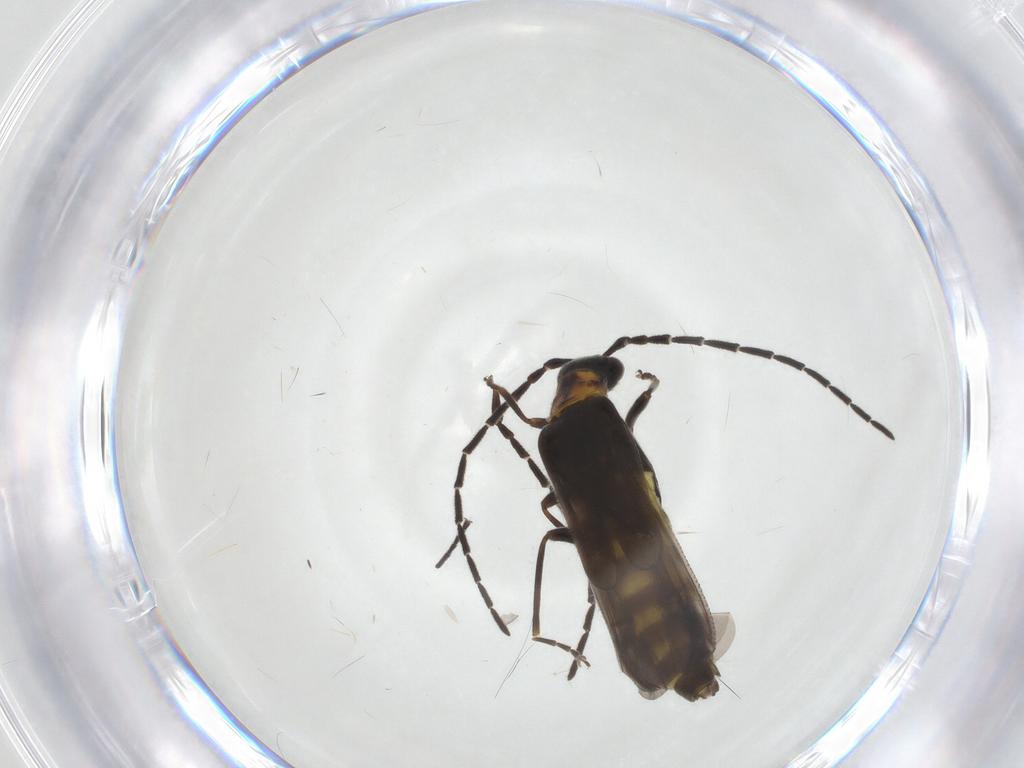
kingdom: Animalia
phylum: Arthropoda
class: Insecta
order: Coleoptera
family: Cantharidae
